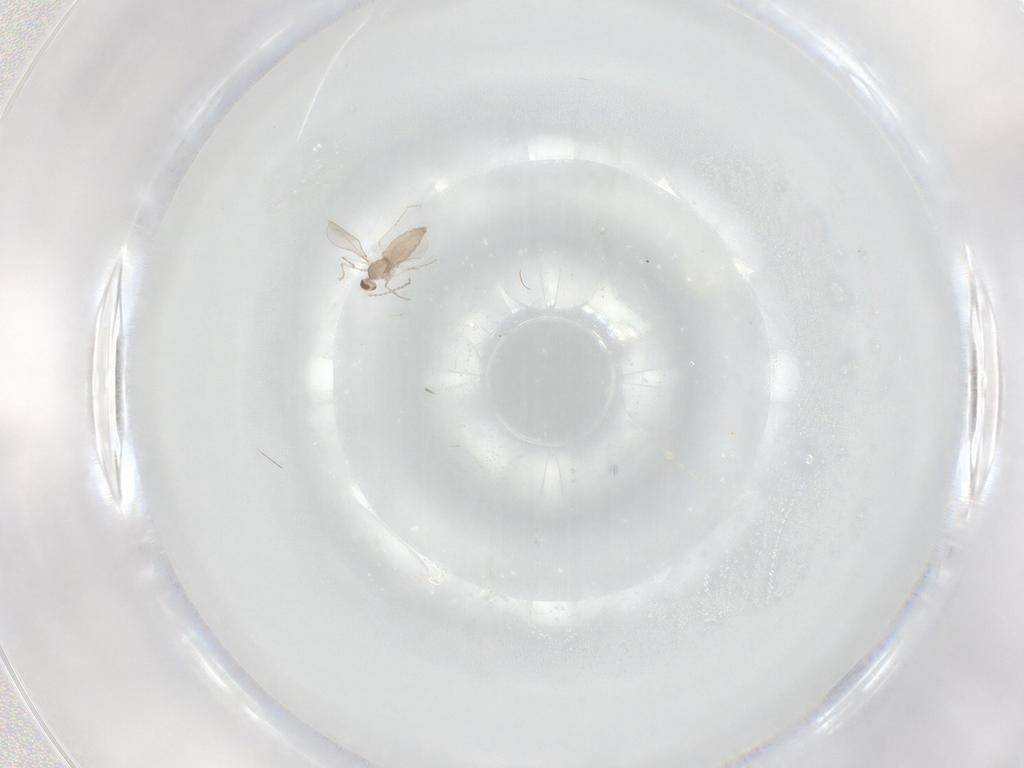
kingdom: Animalia
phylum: Arthropoda
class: Insecta
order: Diptera
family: Cecidomyiidae
